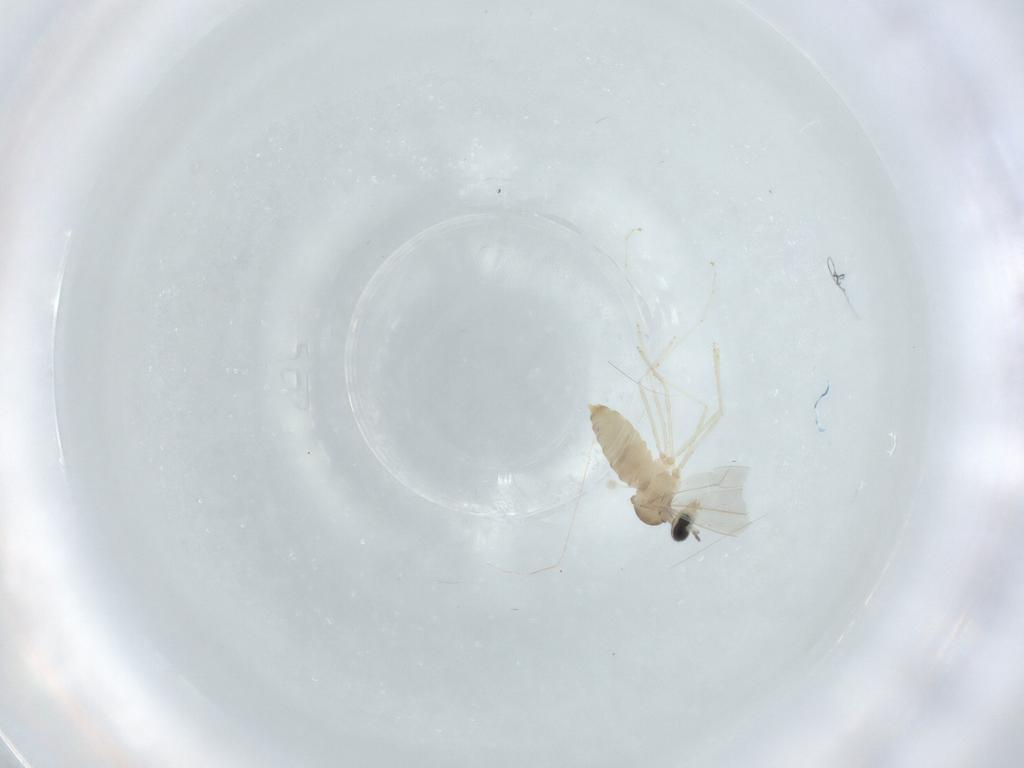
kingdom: Animalia
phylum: Arthropoda
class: Insecta
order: Diptera
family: Cecidomyiidae
